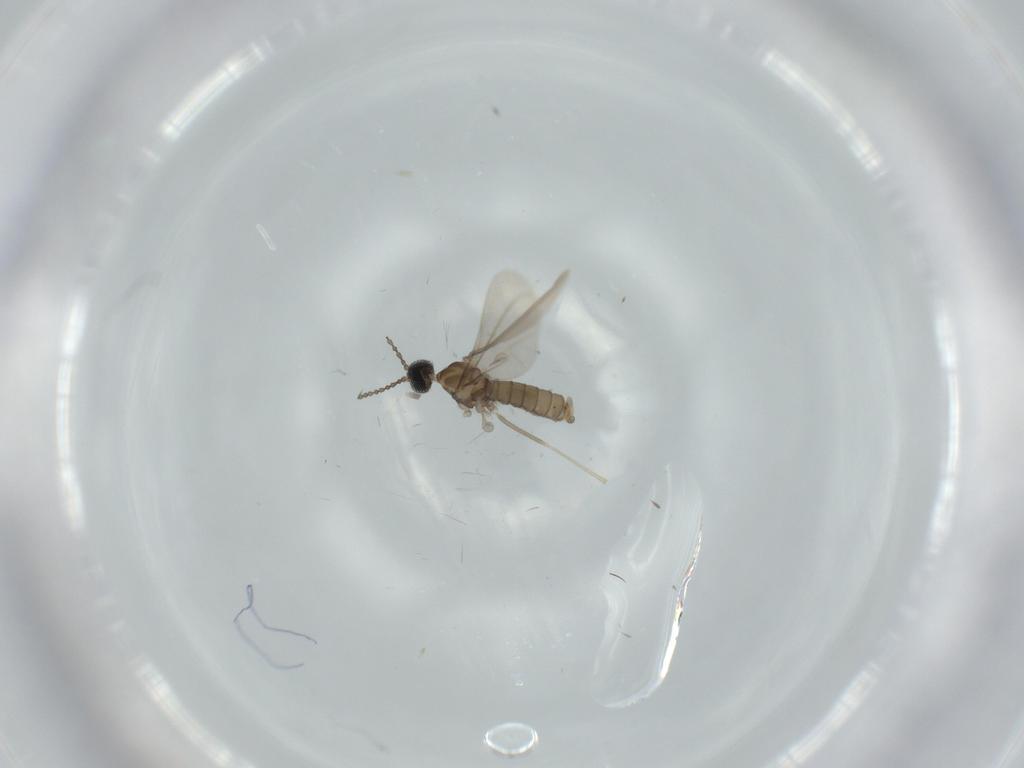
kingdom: Animalia
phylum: Arthropoda
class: Insecta
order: Diptera
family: Cecidomyiidae
